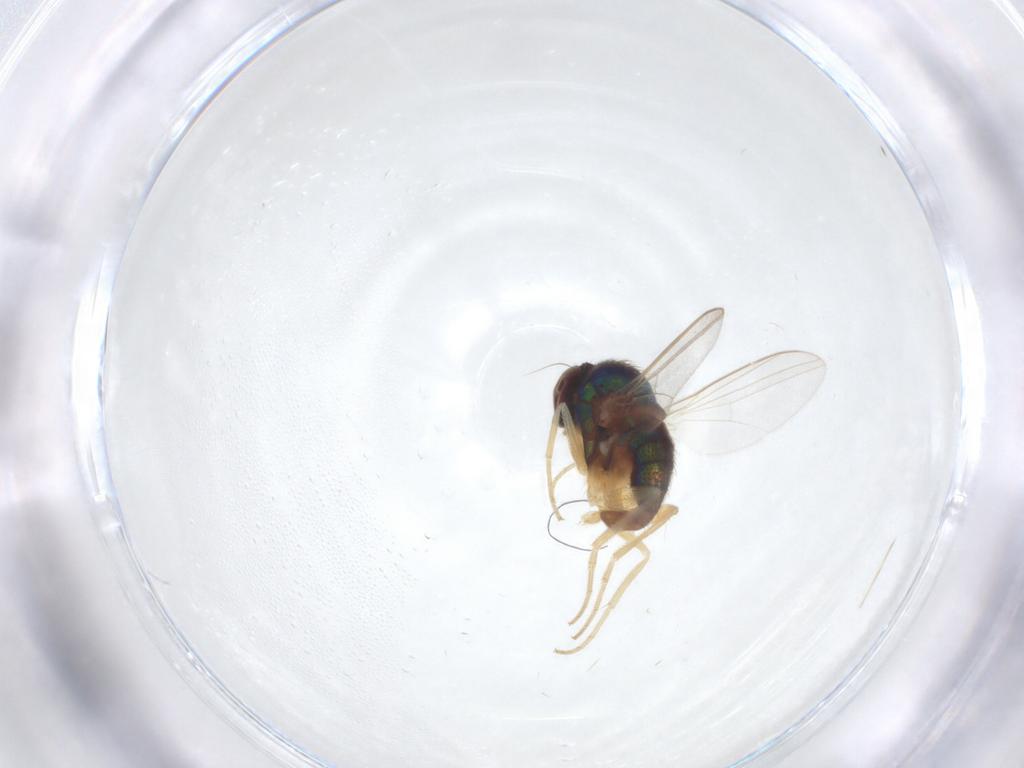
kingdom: Animalia
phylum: Arthropoda
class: Insecta
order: Diptera
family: Dolichopodidae
